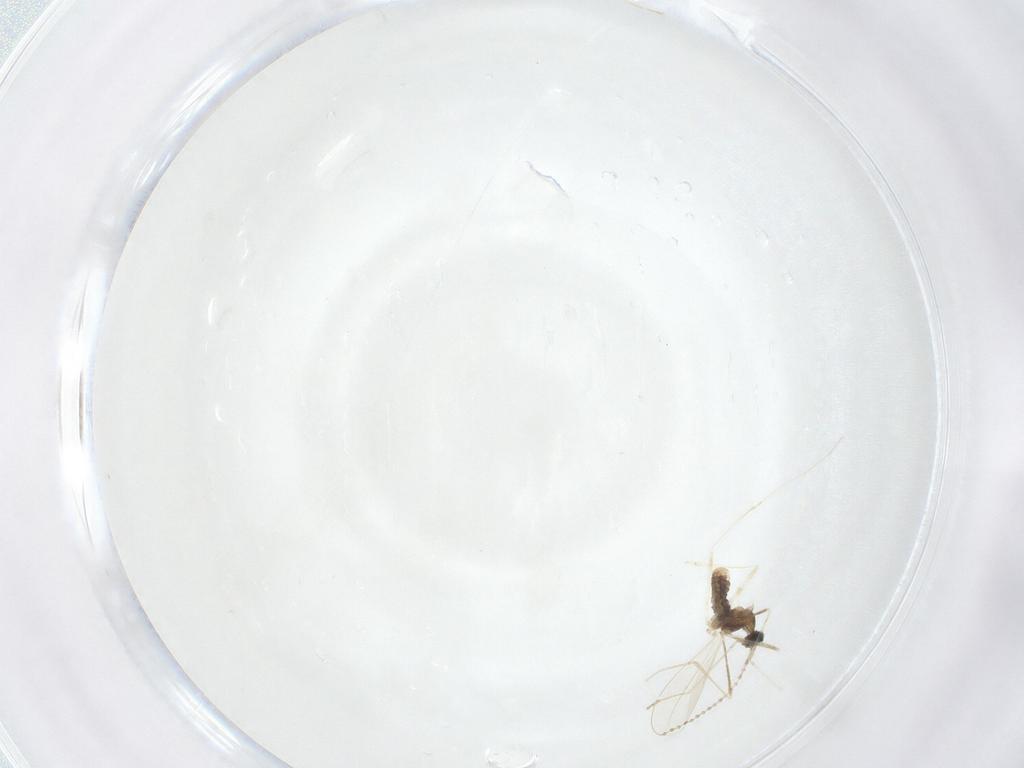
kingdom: Animalia
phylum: Arthropoda
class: Insecta
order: Diptera
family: Cecidomyiidae
